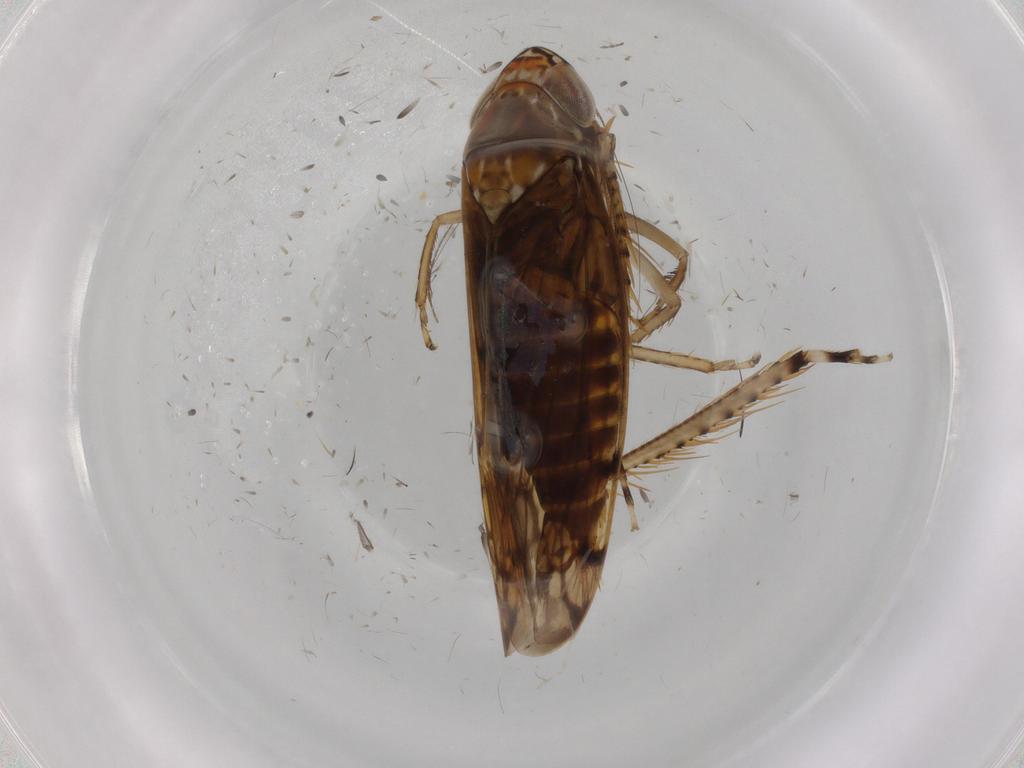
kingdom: Animalia
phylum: Arthropoda
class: Insecta
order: Hemiptera
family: Cicadellidae
